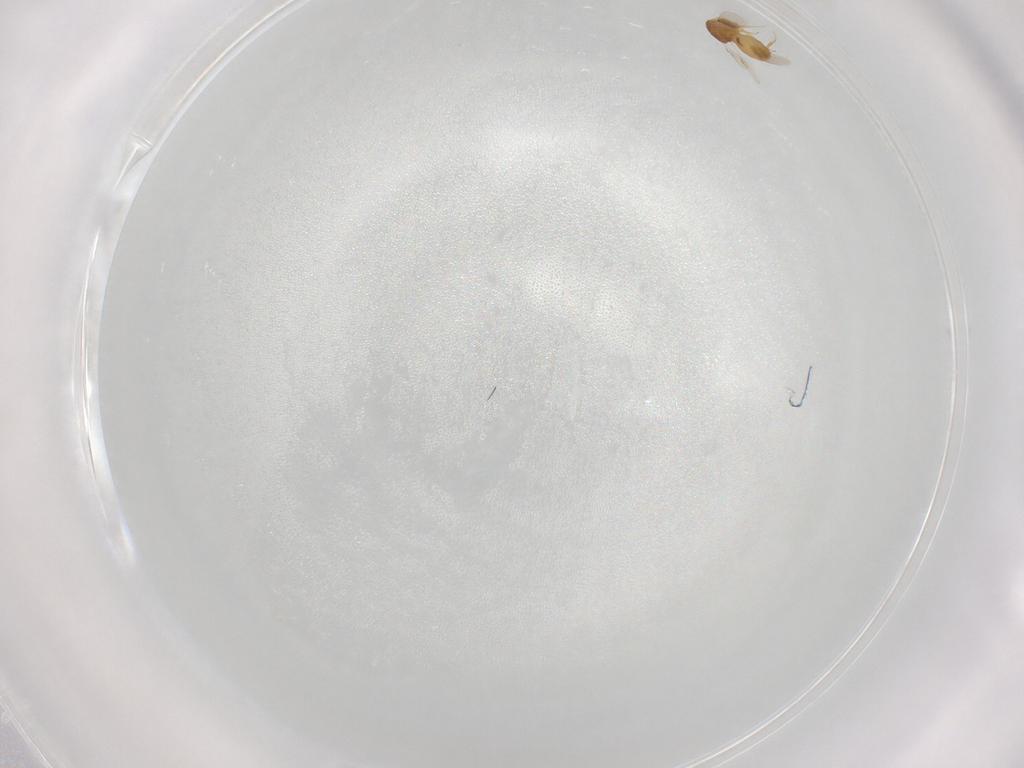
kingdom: Animalia
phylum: Arthropoda
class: Insecta
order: Hymenoptera
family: Scelionidae
